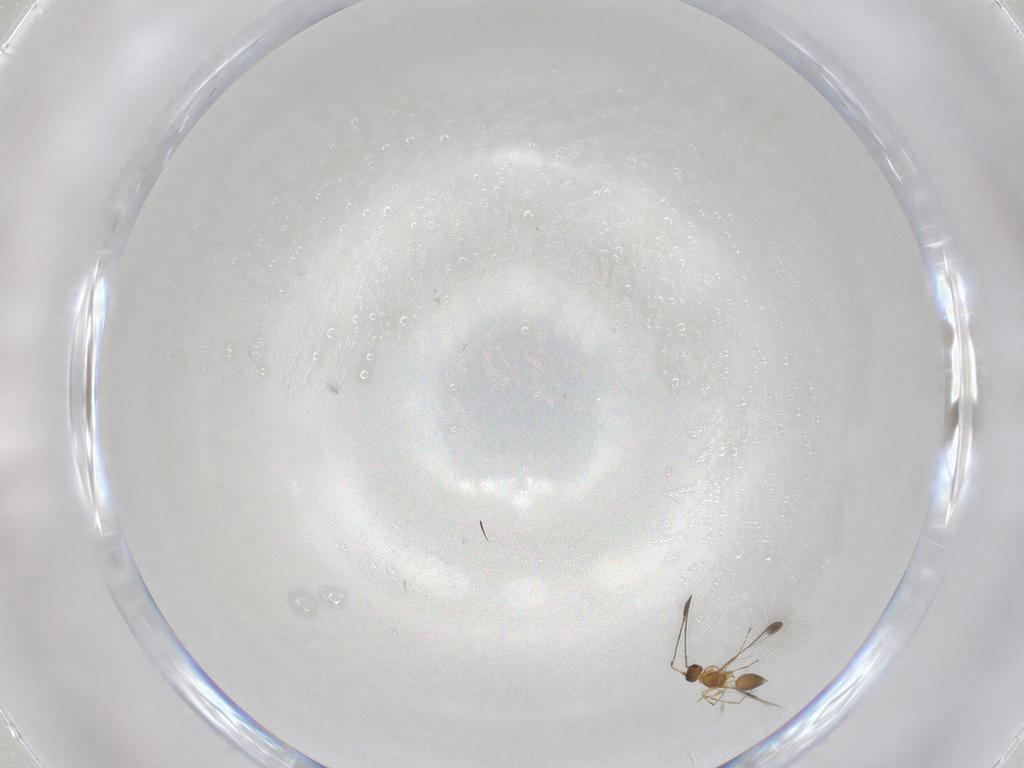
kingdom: Animalia
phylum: Arthropoda
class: Insecta
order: Hymenoptera
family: Mymaridae
